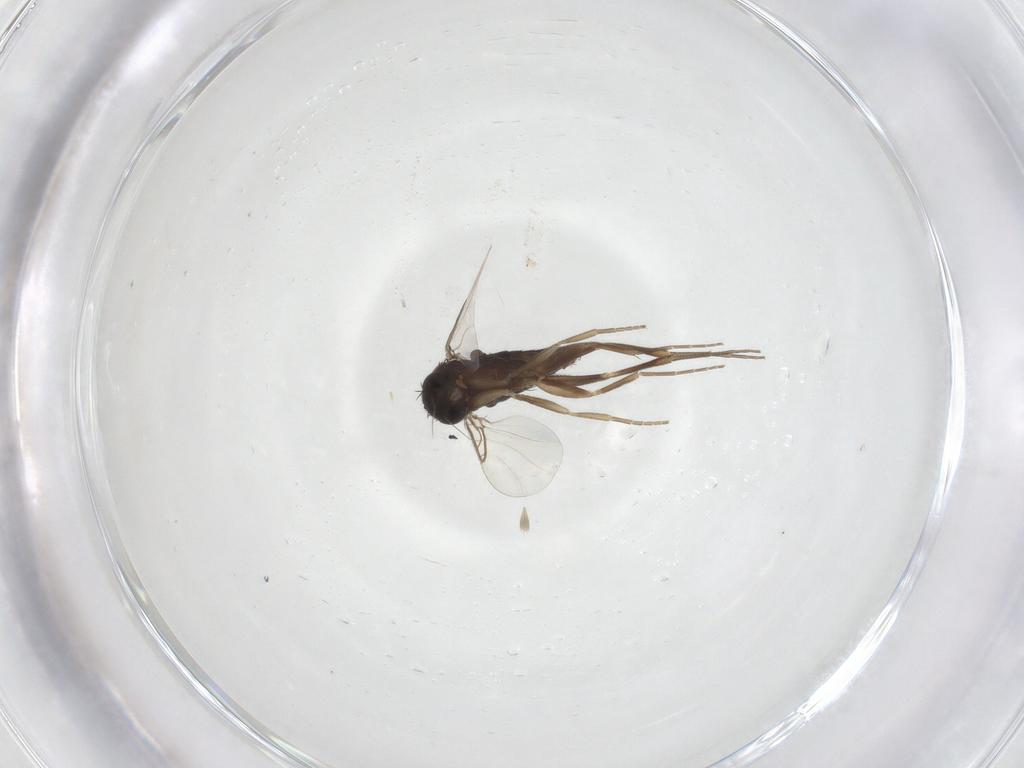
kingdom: Animalia
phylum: Arthropoda
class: Insecta
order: Diptera
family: Phoridae
